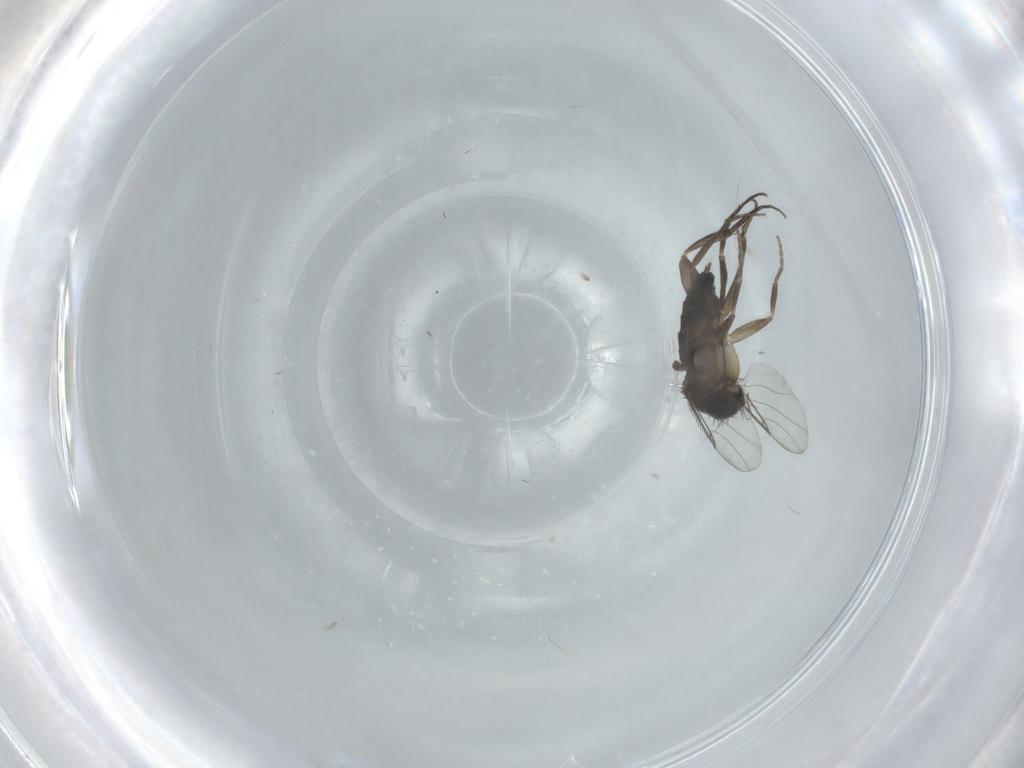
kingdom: Animalia
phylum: Arthropoda
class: Insecta
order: Diptera
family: Phoridae
